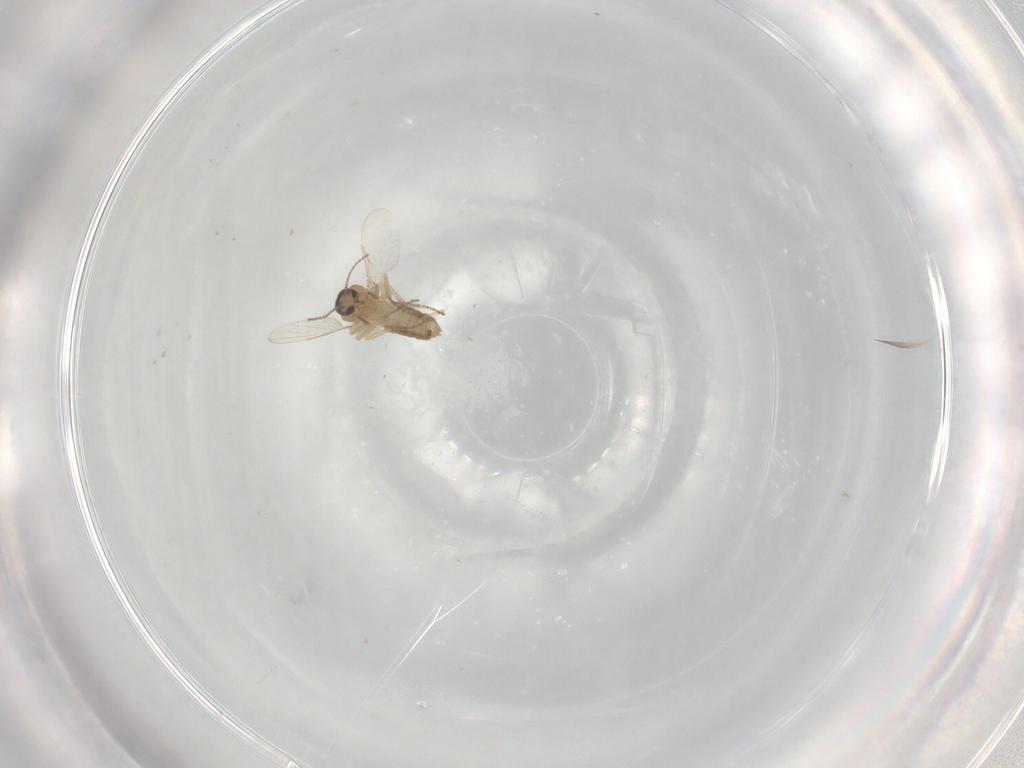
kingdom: Animalia
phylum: Arthropoda
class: Insecta
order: Diptera
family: Ceratopogonidae
